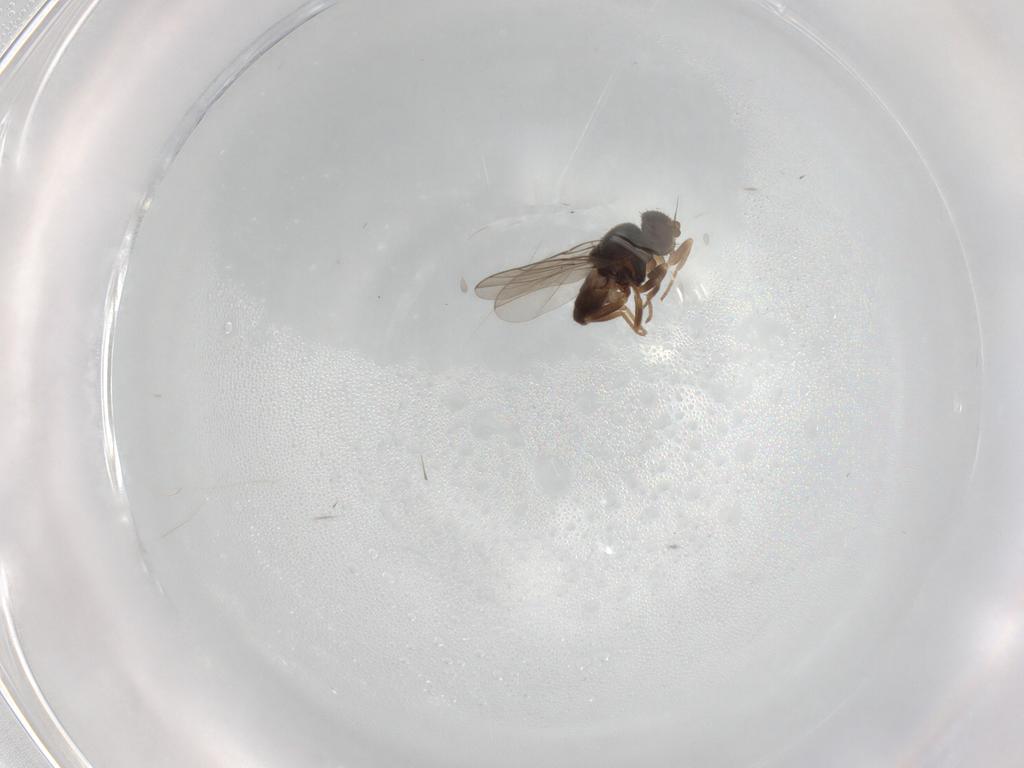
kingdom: Animalia
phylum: Arthropoda
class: Insecta
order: Diptera
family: Chloropidae
